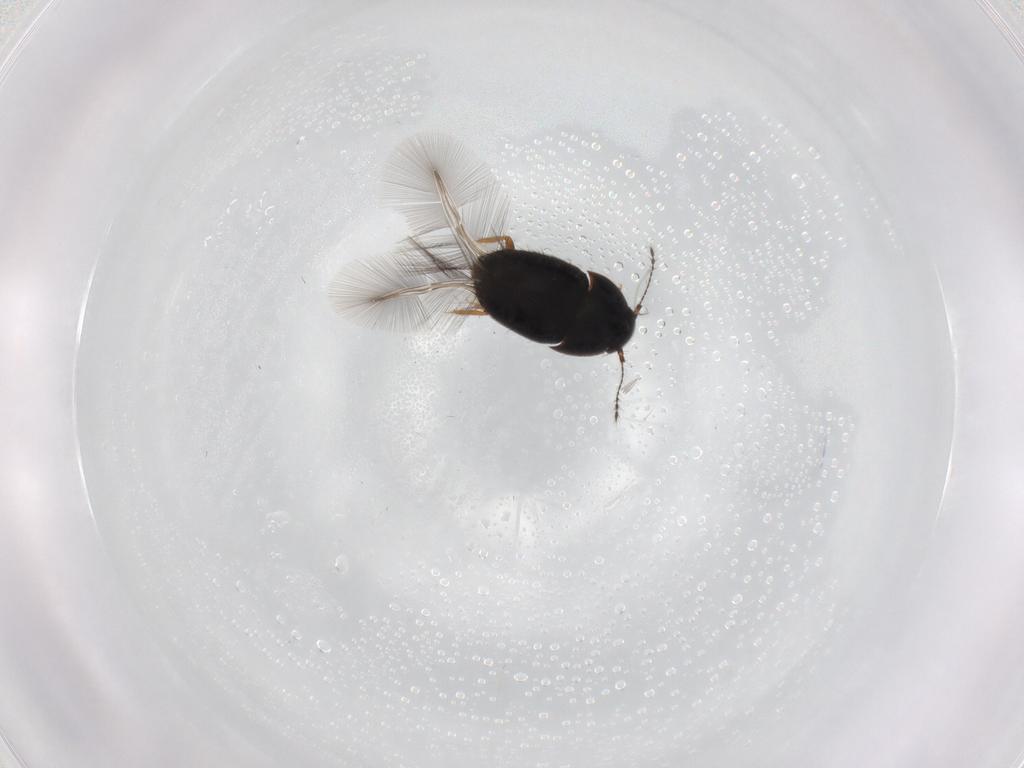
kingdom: Animalia
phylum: Arthropoda
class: Insecta
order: Coleoptera
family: Ptiliidae
